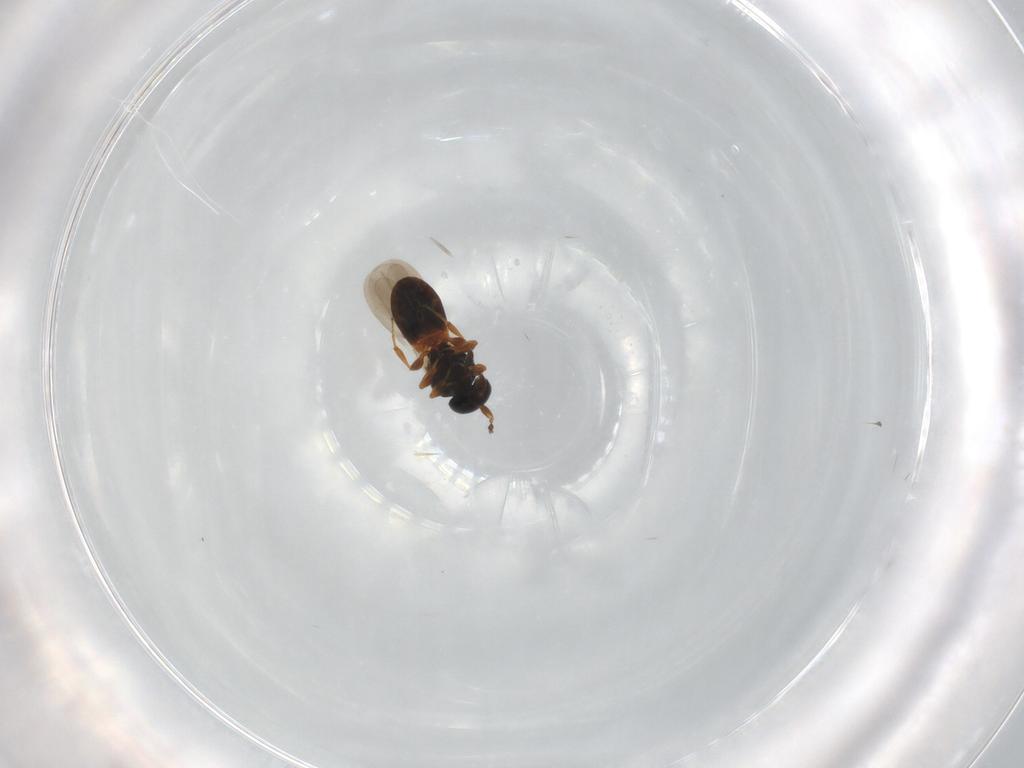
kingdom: Animalia
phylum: Arthropoda
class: Insecta
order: Hymenoptera
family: Platygastridae
